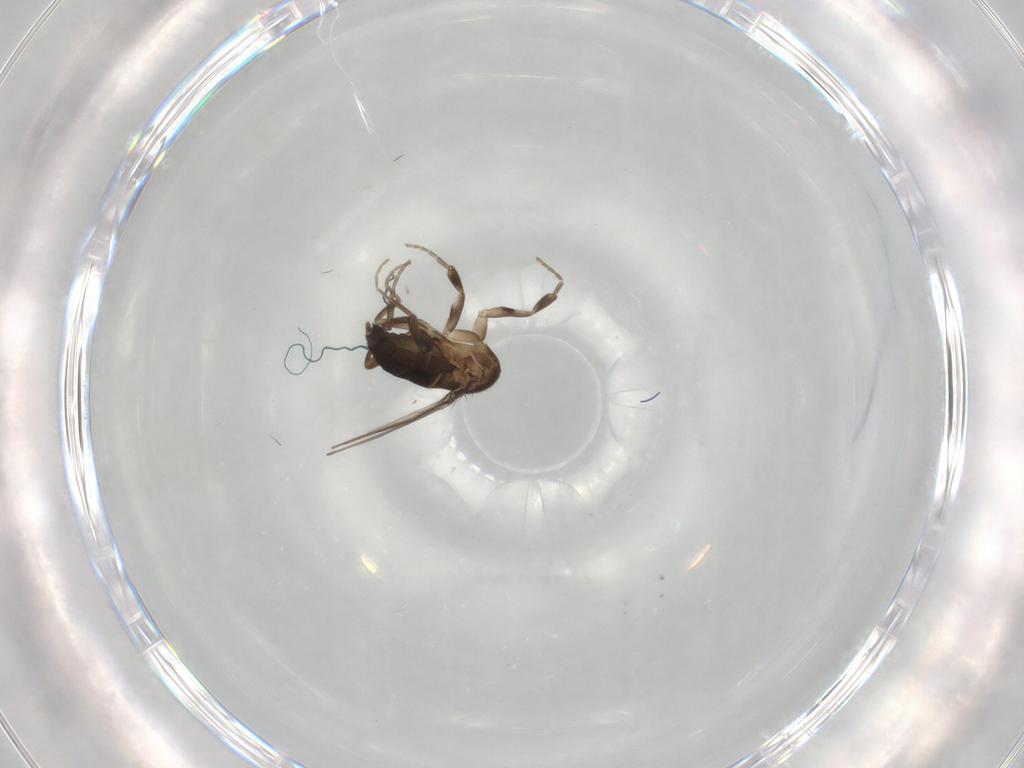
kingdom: Animalia
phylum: Arthropoda
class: Insecta
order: Diptera
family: Phoridae
